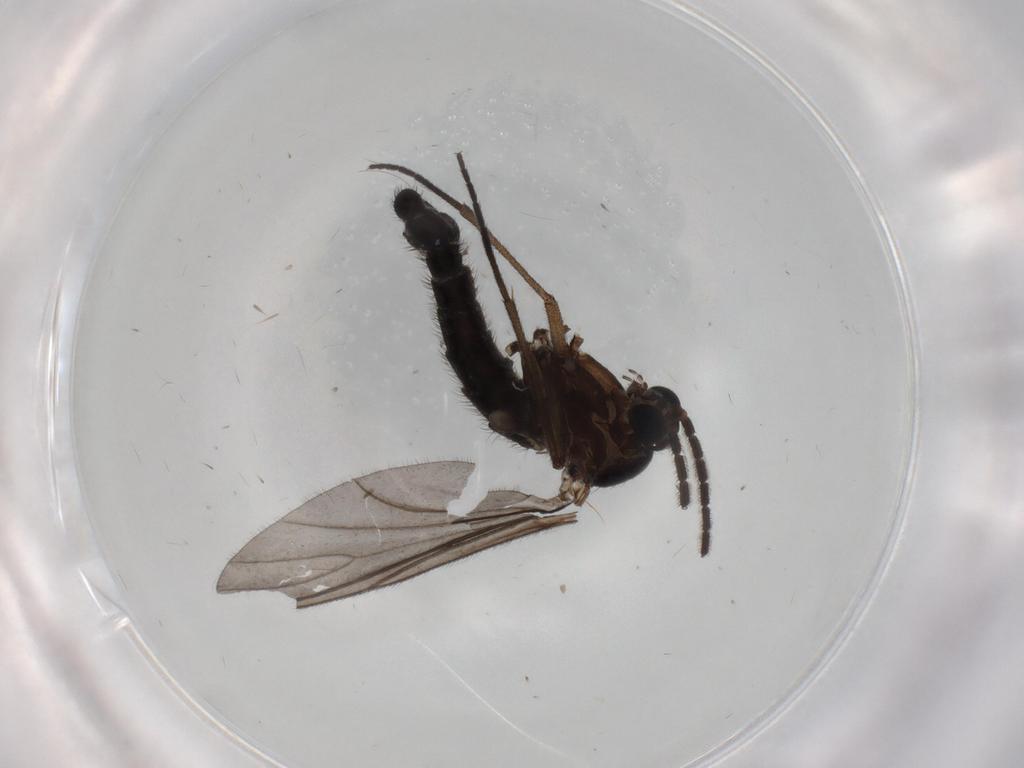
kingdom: Animalia
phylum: Arthropoda
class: Insecta
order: Diptera
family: Sciaridae
